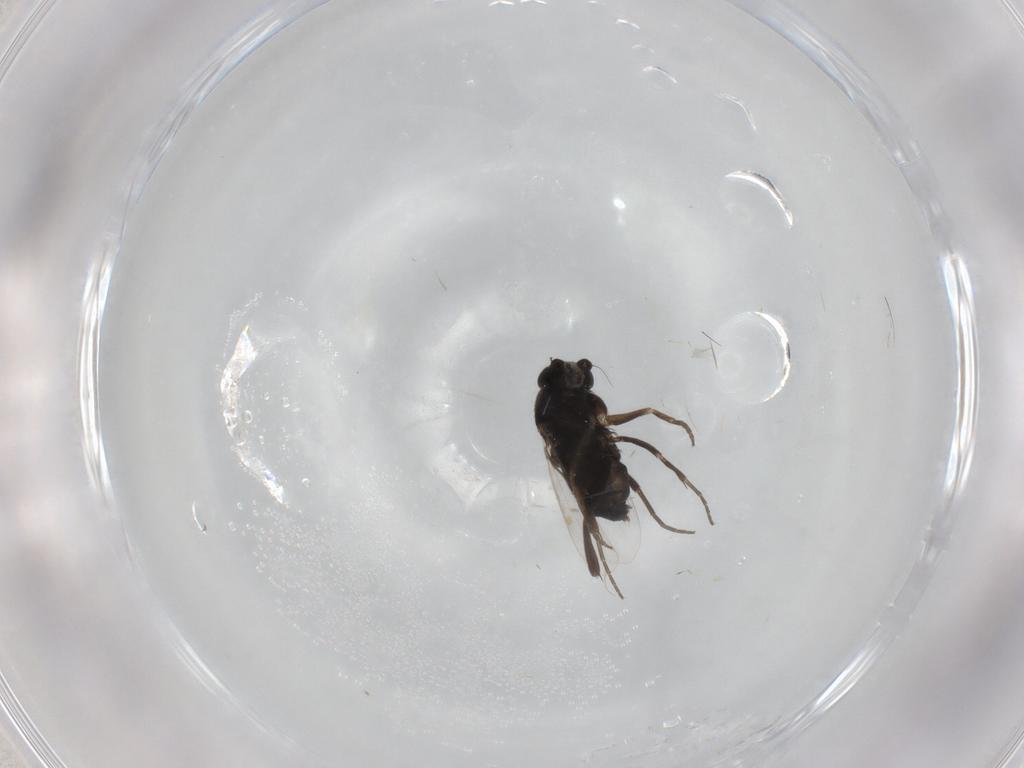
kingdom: Animalia
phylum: Arthropoda
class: Insecta
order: Diptera
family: Phoridae
